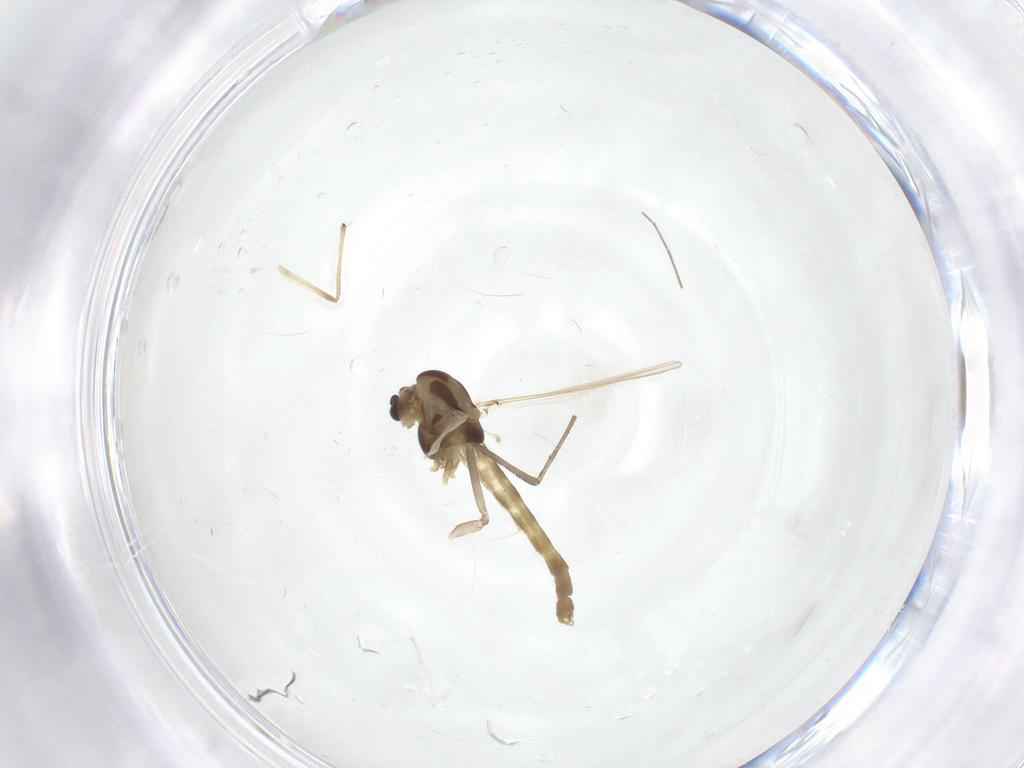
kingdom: Animalia
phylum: Arthropoda
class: Insecta
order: Diptera
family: Chironomidae
